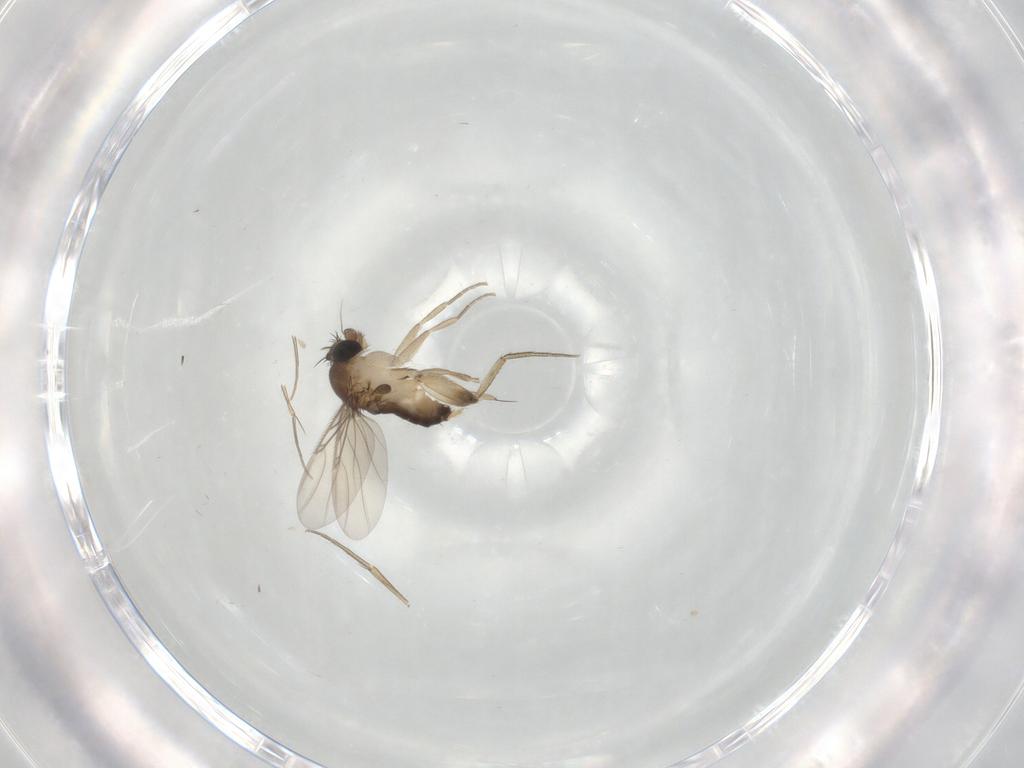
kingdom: Animalia
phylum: Arthropoda
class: Insecta
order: Diptera
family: Phoridae
